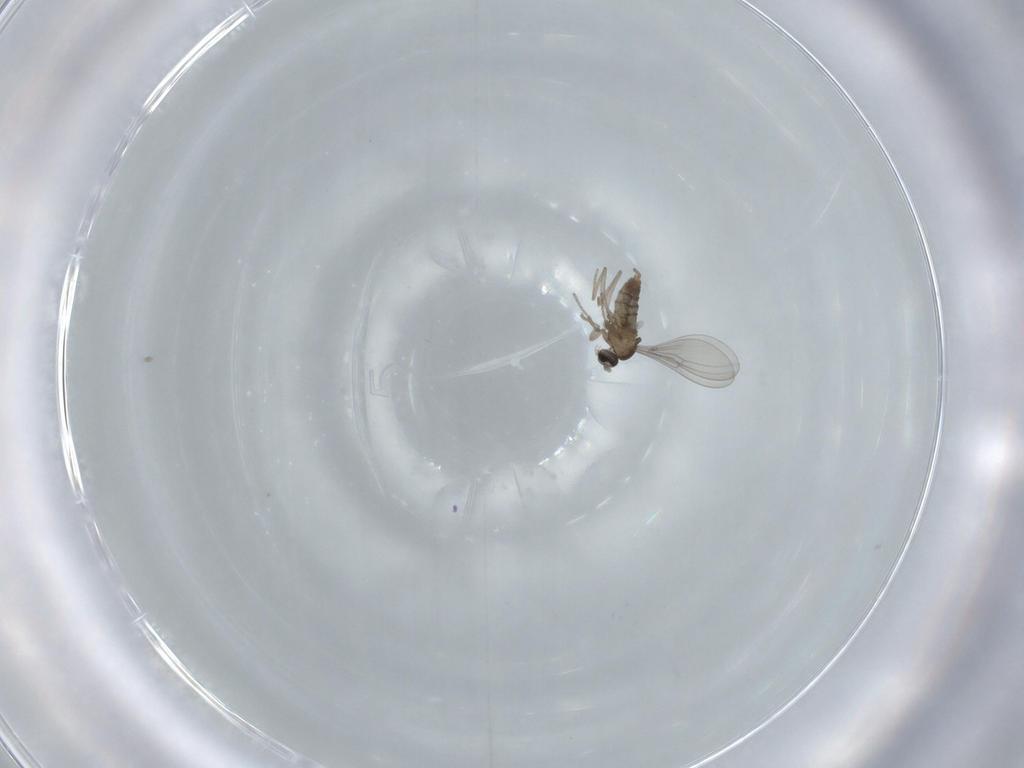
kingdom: Animalia
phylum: Arthropoda
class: Insecta
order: Diptera
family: Cecidomyiidae
